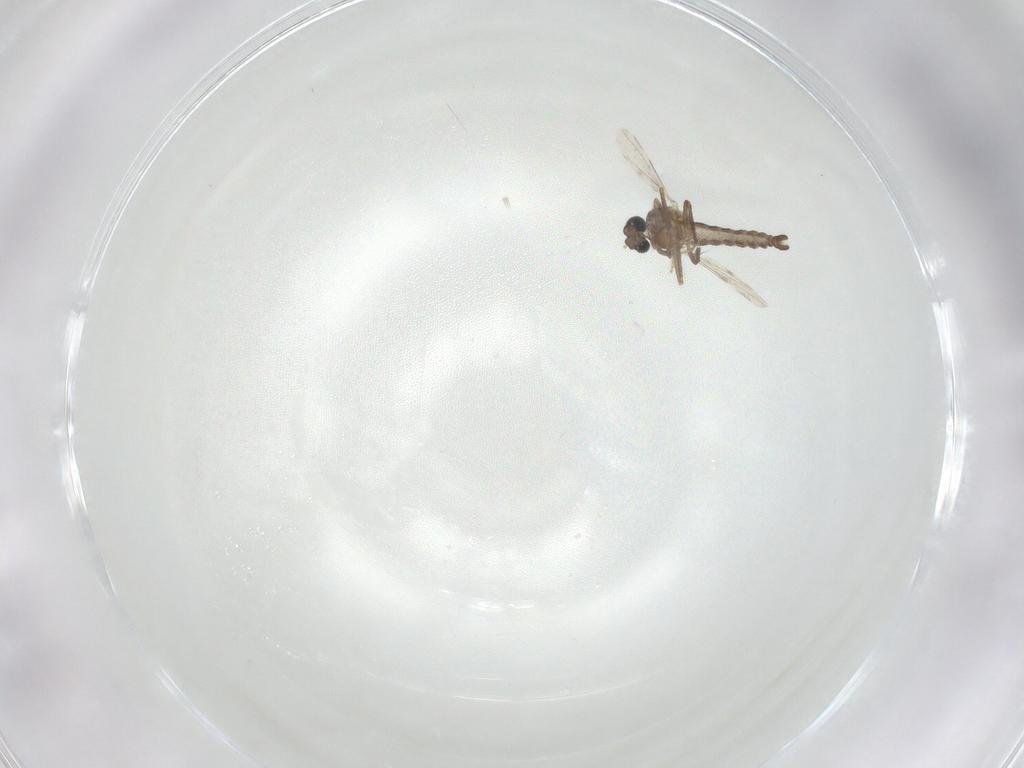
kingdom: Animalia
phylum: Arthropoda
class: Insecta
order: Diptera
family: Ceratopogonidae
